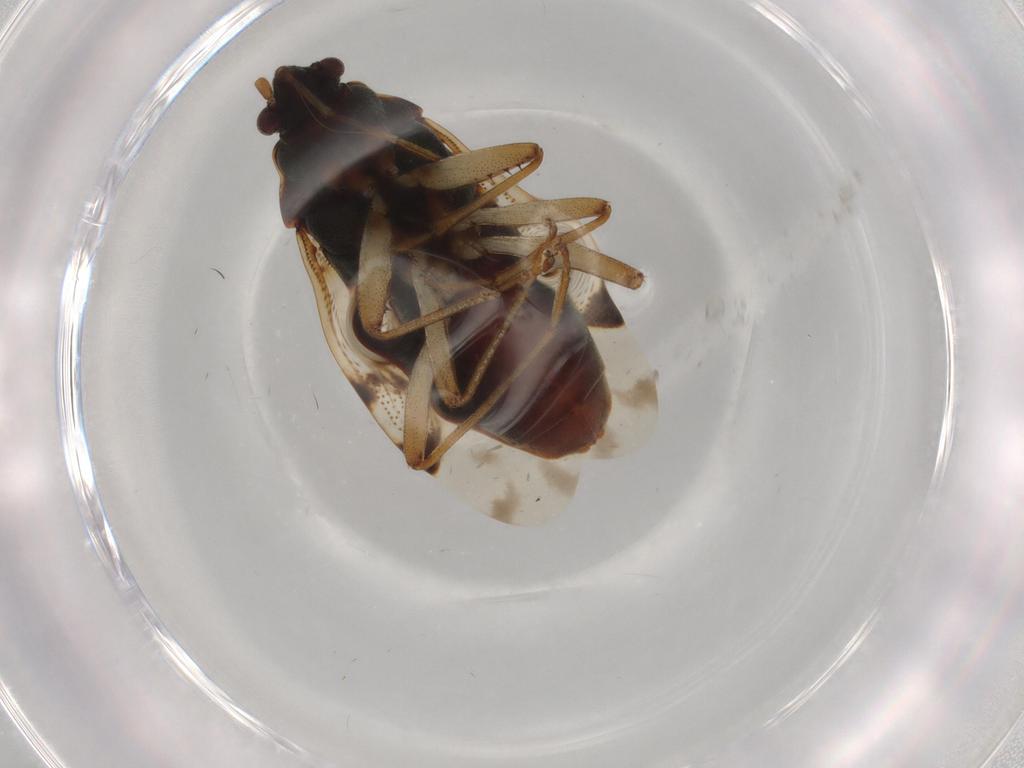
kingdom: Animalia
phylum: Arthropoda
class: Insecta
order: Hemiptera
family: Rhyparochromidae
